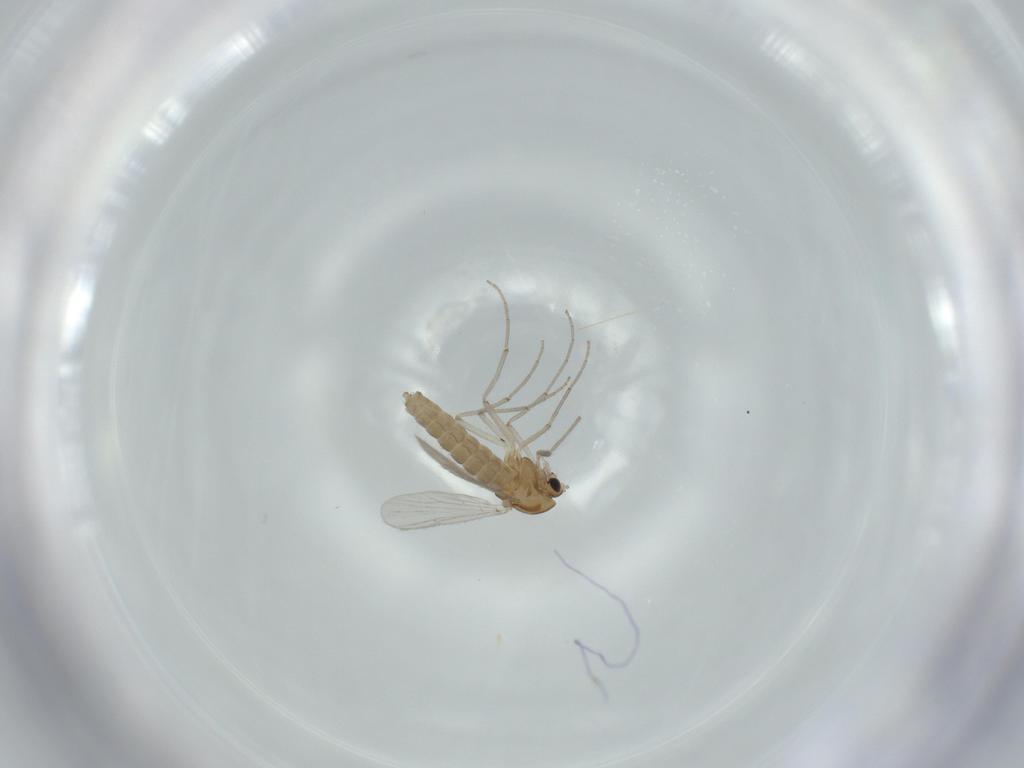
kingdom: Animalia
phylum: Arthropoda
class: Insecta
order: Diptera
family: Chironomidae
